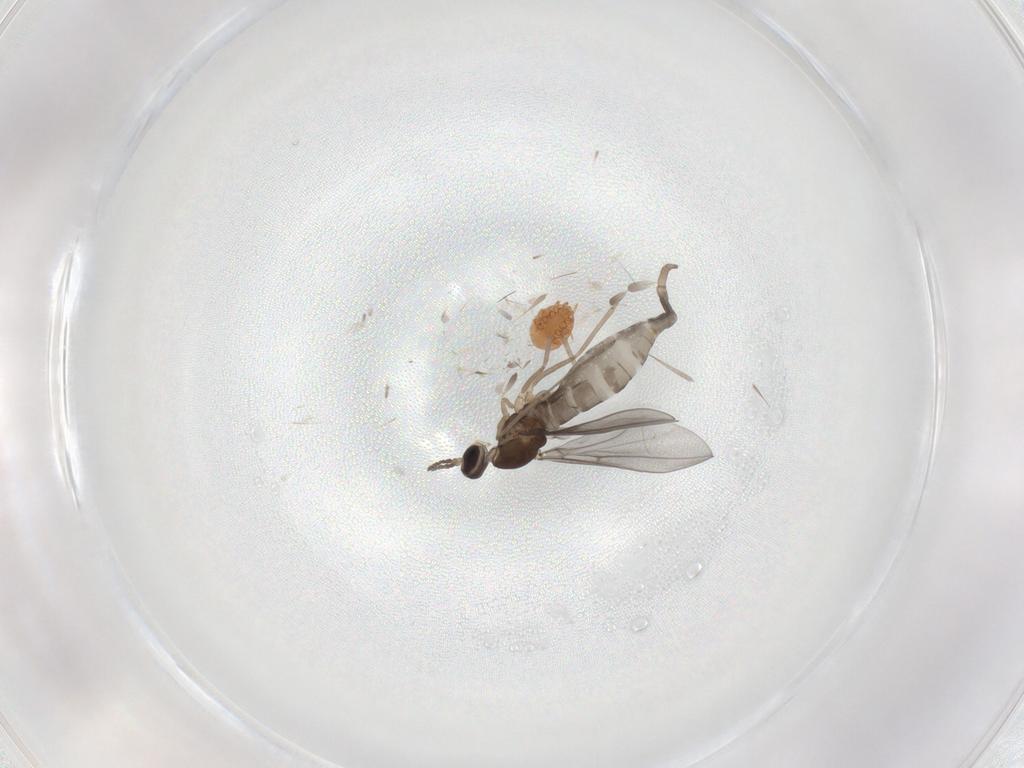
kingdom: Animalia
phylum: Arthropoda
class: Insecta
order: Diptera
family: Cecidomyiidae
